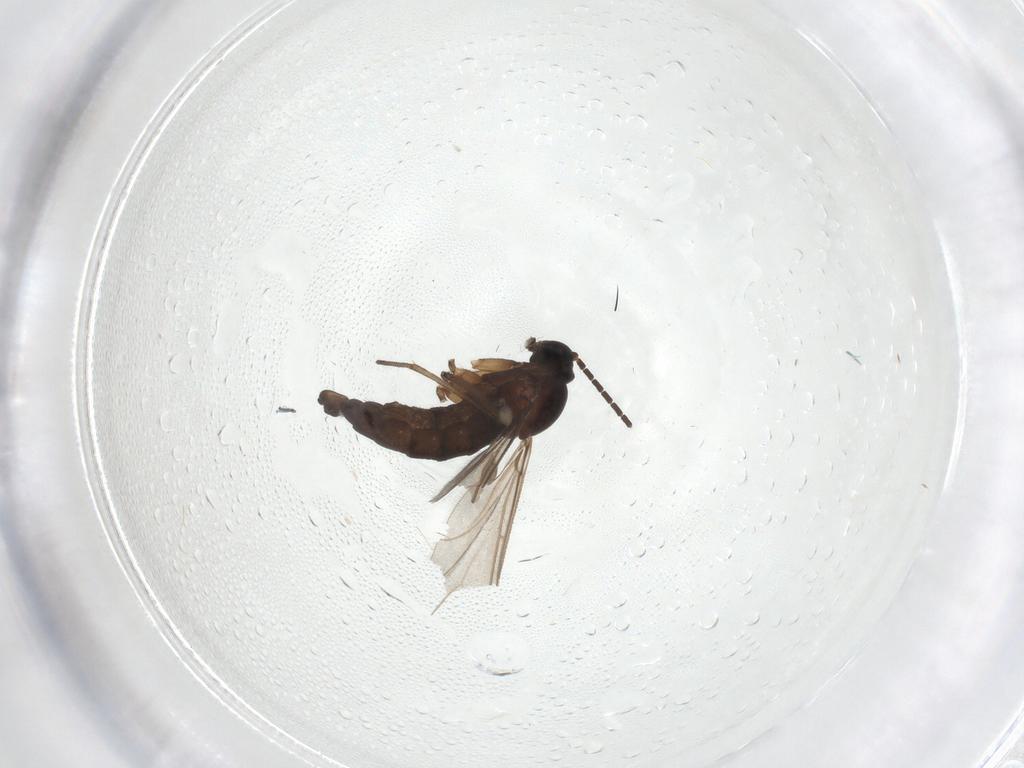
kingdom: Animalia
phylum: Arthropoda
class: Insecta
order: Diptera
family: Sciaridae
